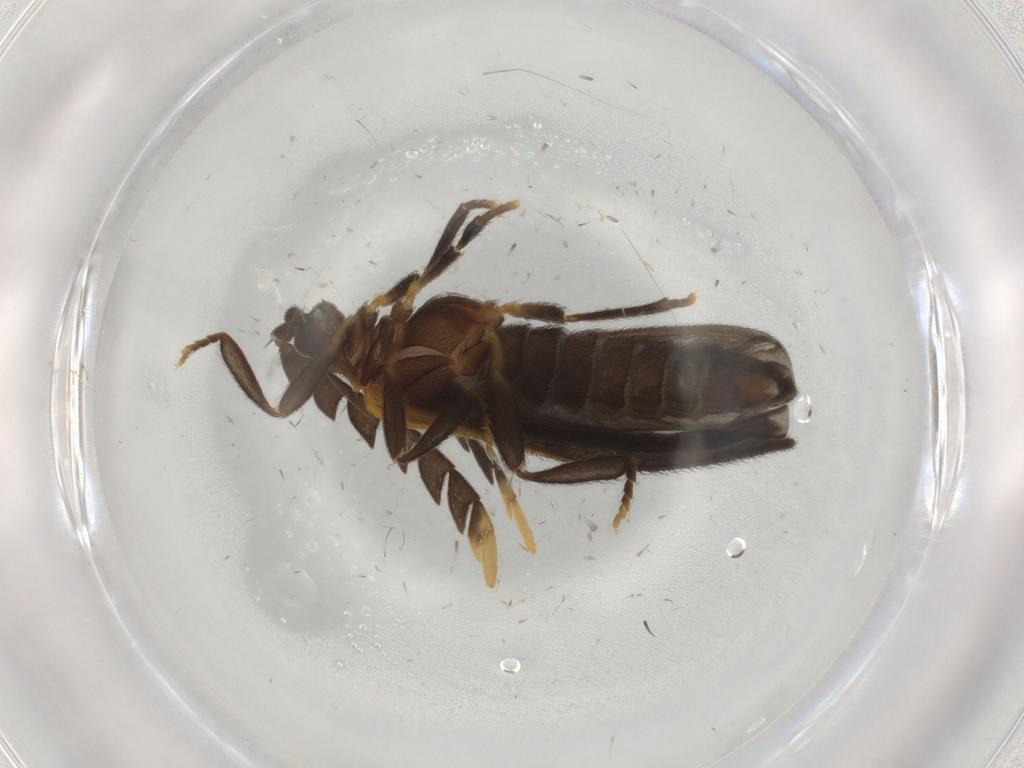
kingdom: Animalia
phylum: Arthropoda
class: Insecta
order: Coleoptera
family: Lycidae
